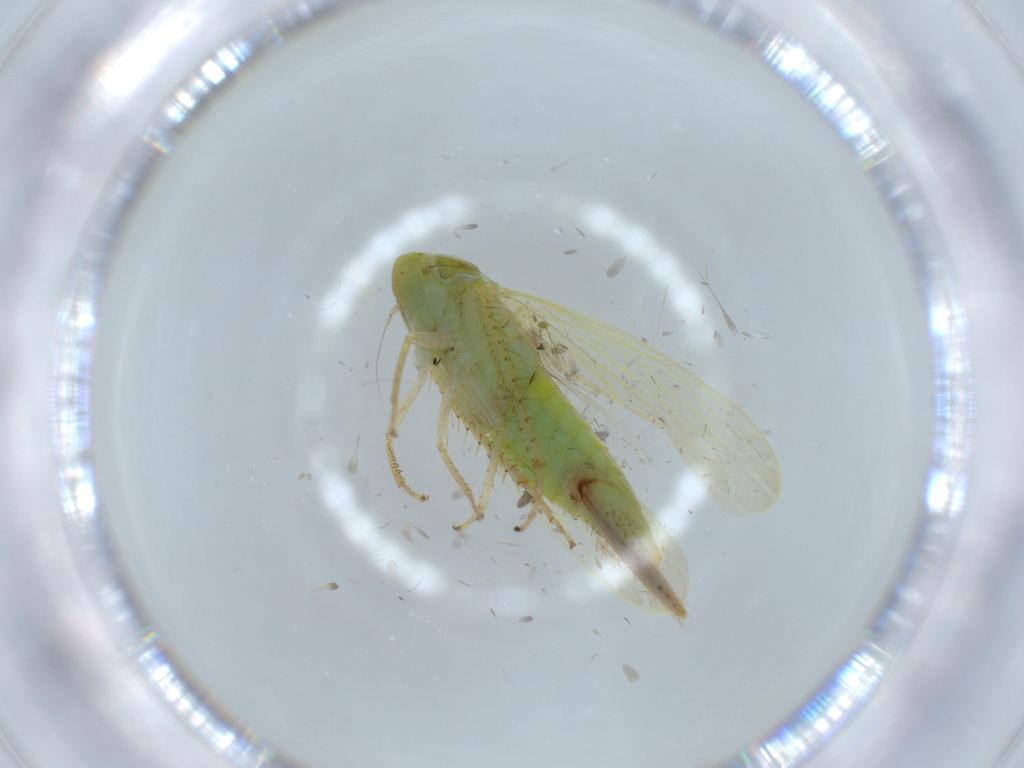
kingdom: Animalia
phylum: Arthropoda
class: Insecta
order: Hemiptera
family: Cicadellidae
